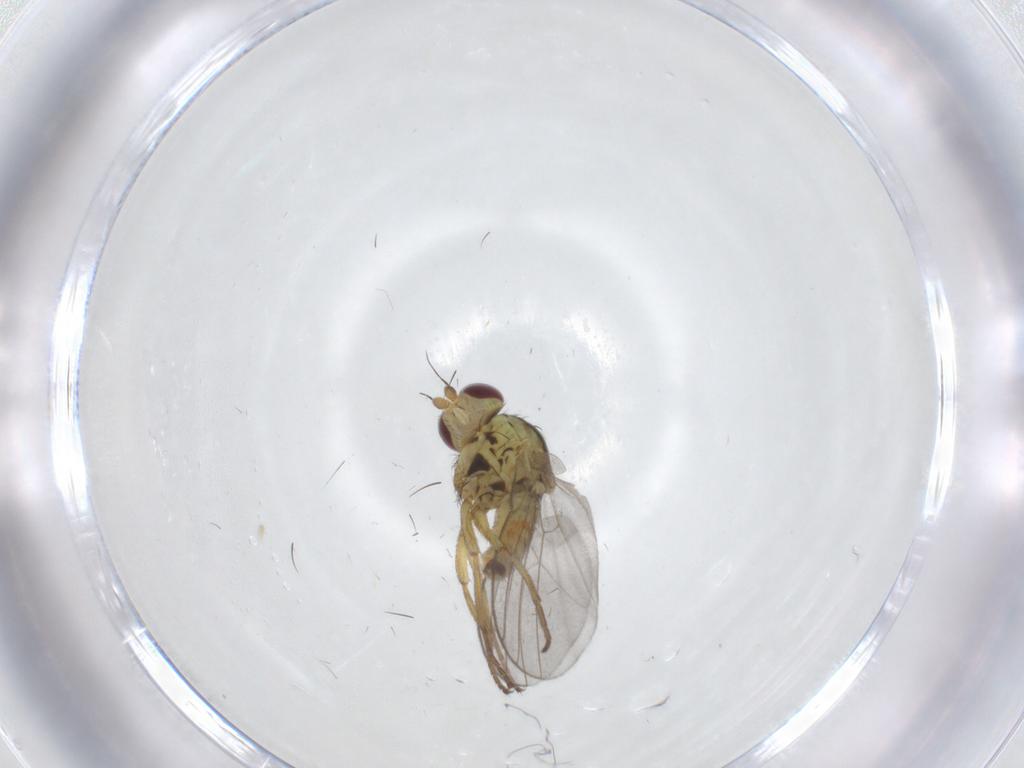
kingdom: Animalia
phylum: Arthropoda
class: Insecta
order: Diptera
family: Agromyzidae
